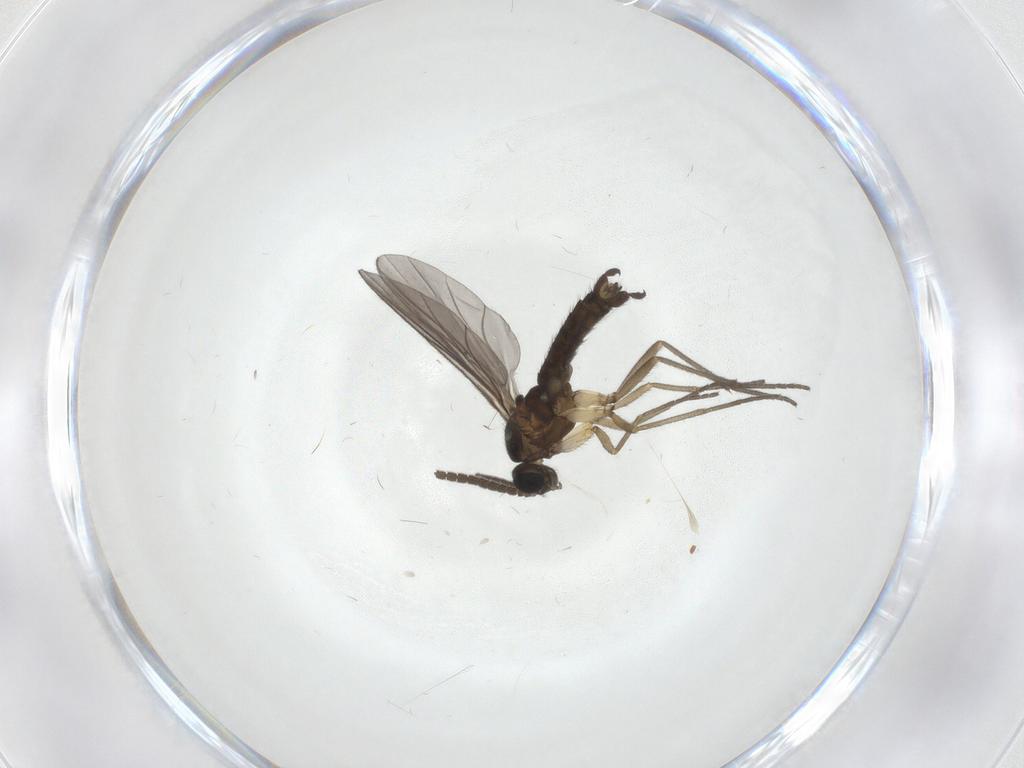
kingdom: Animalia
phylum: Arthropoda
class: Insecta
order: Diptera
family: Sciaridae
